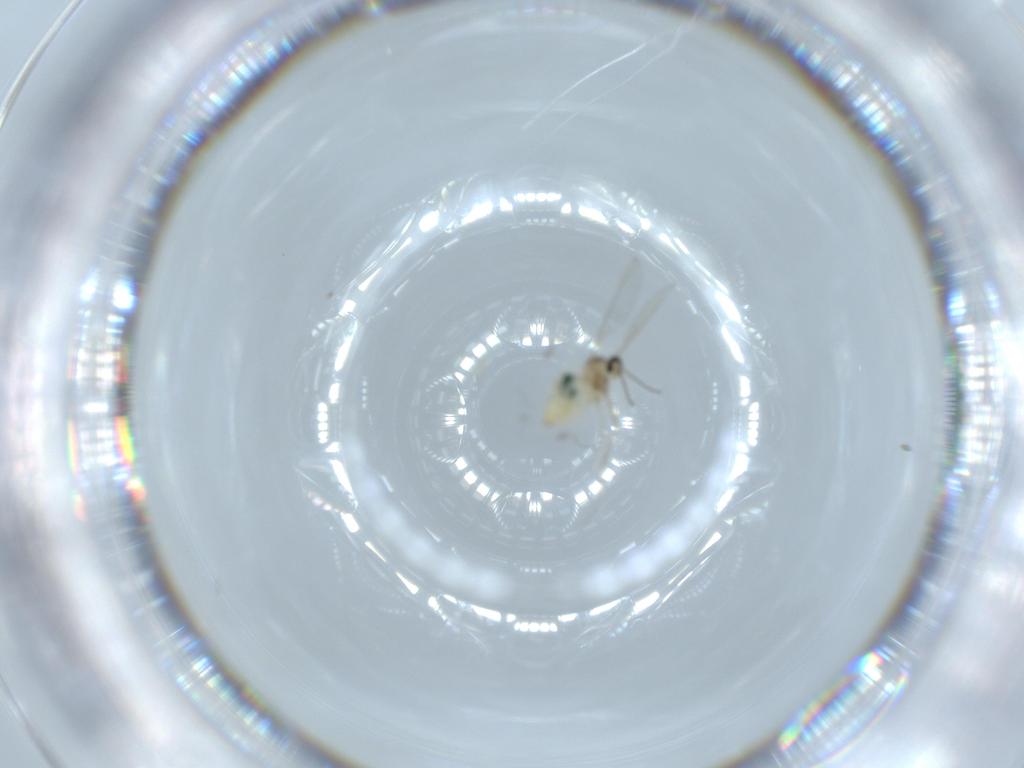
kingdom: Animalia
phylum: Arthropoda
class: Insecta
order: Diptera
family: Cecidomyiidae
